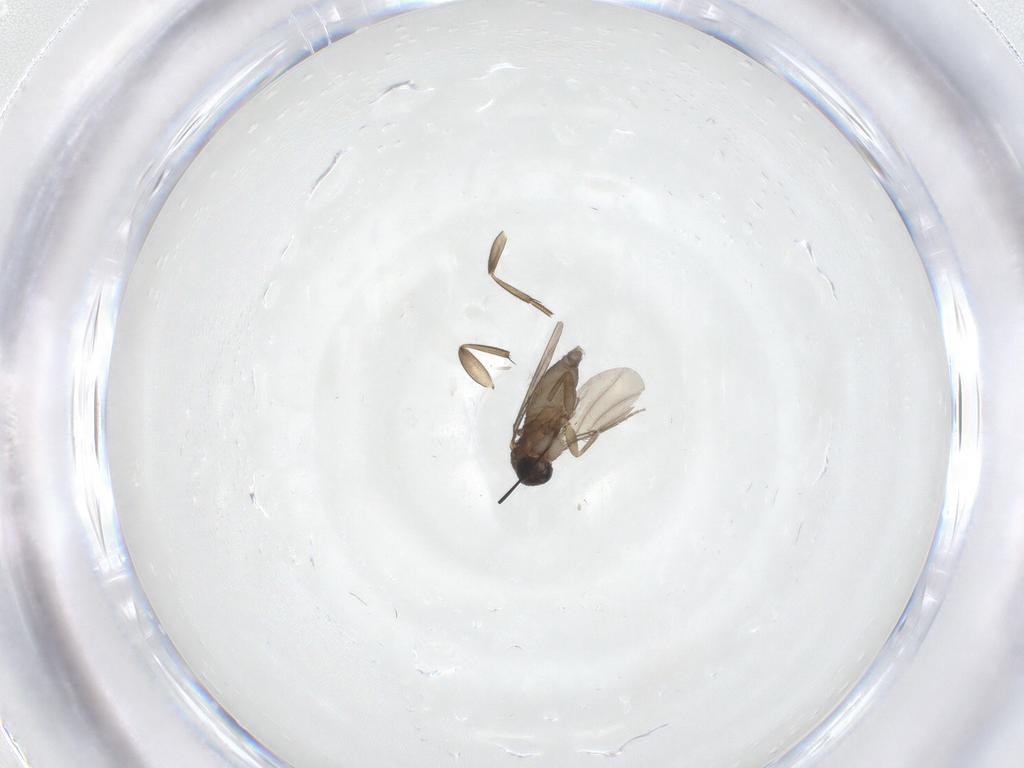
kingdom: Animalia
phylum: Arthropoda
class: Insecta
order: Diptera
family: Phoridae
